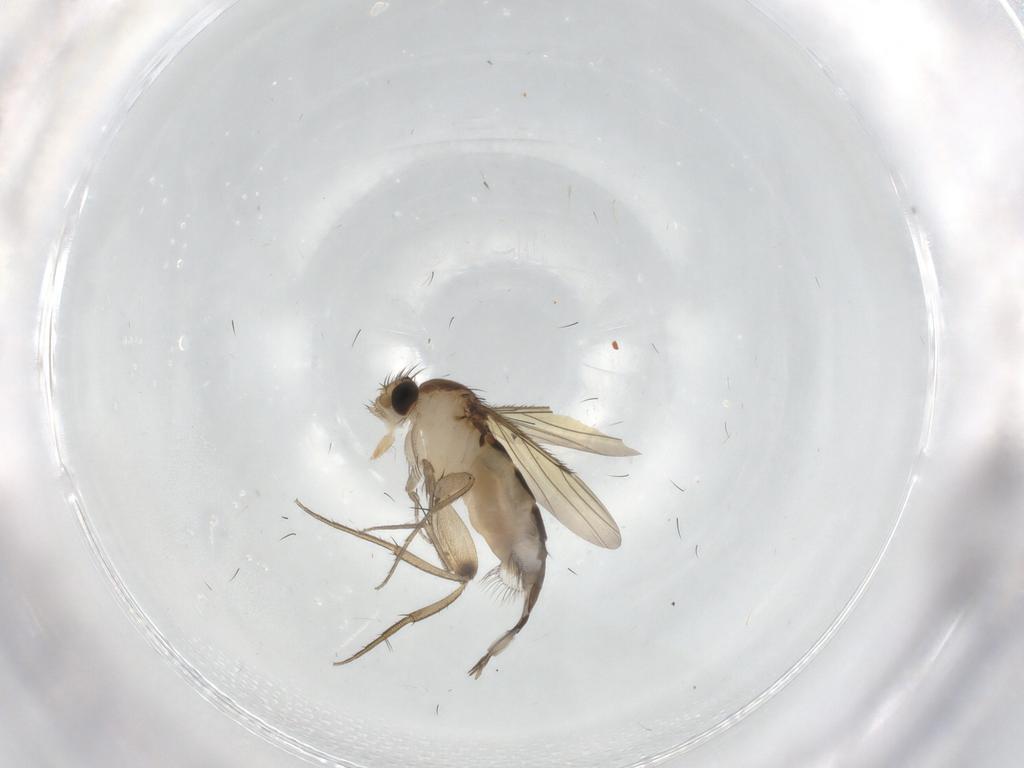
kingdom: Animalia
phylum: Arthropoda
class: Insecta
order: Diptera
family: Phoridae
